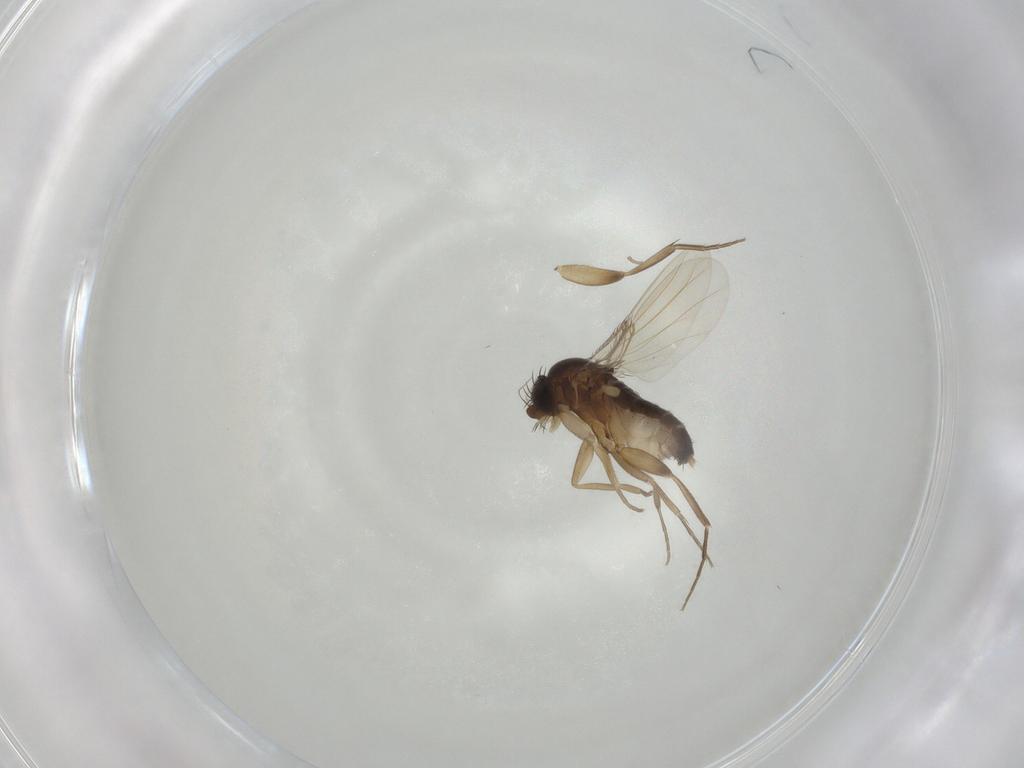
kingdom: Animalia
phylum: Arthropoda
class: Insecta
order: Diptera
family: Phoridae
